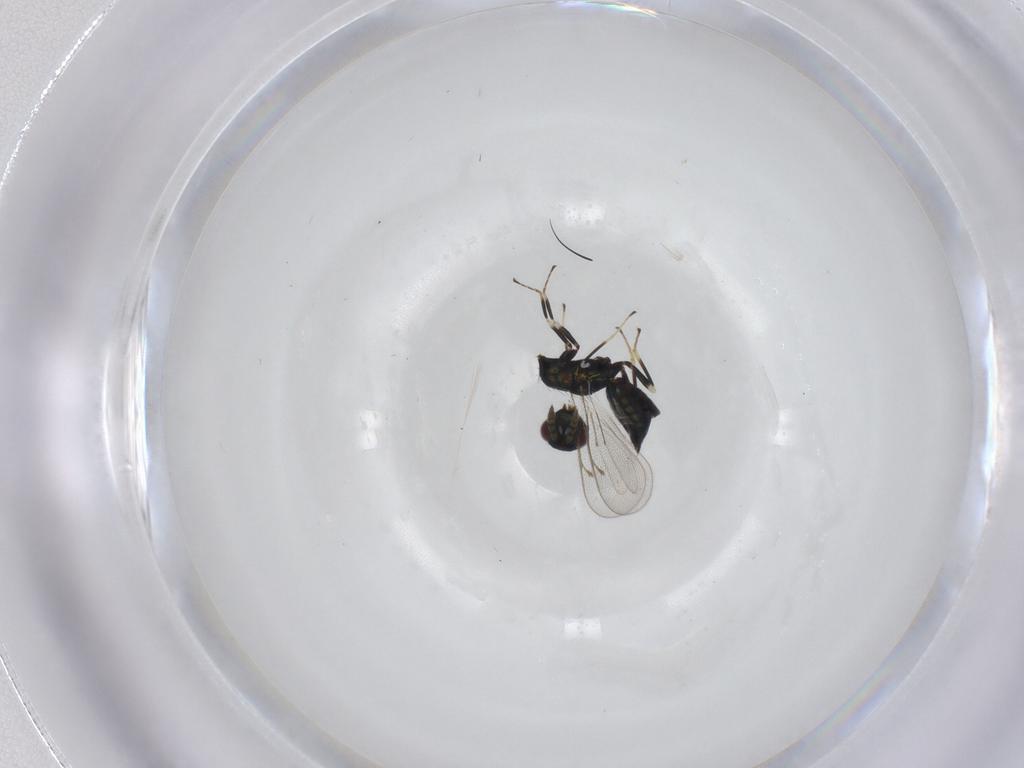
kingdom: Animalia
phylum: Arthropoda
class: Insecta
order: Hymenoptera
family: Eulophidae
